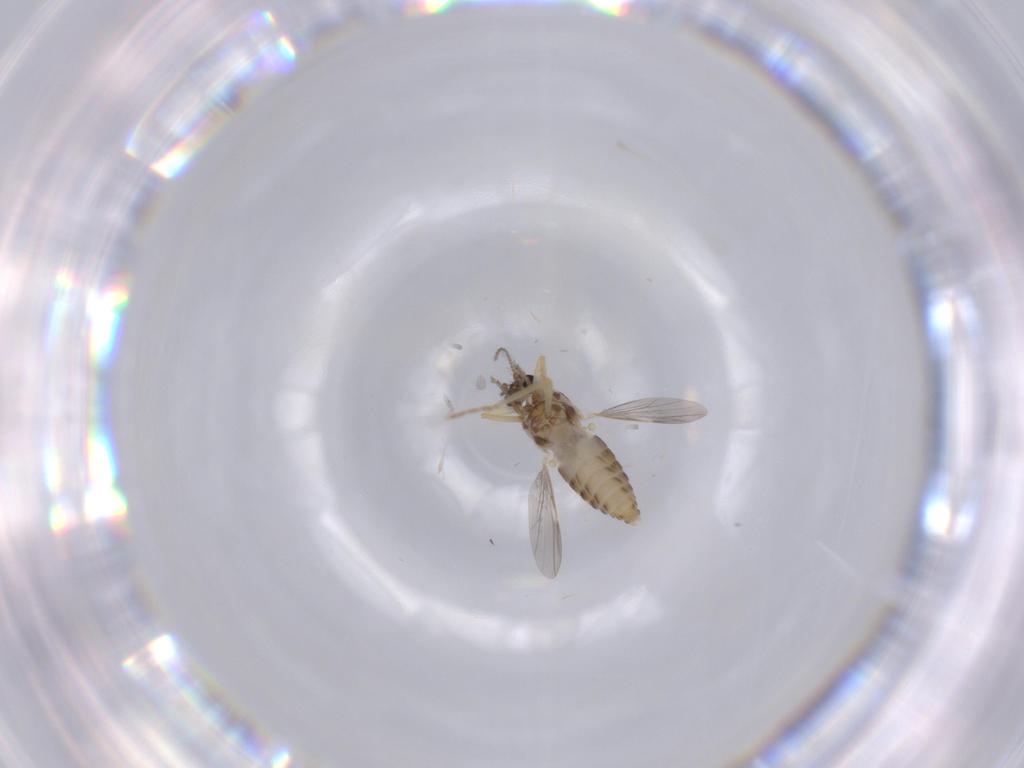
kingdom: Animalia
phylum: Arthropoda
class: Insecta
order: Diptera
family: Ceratopogonidae
